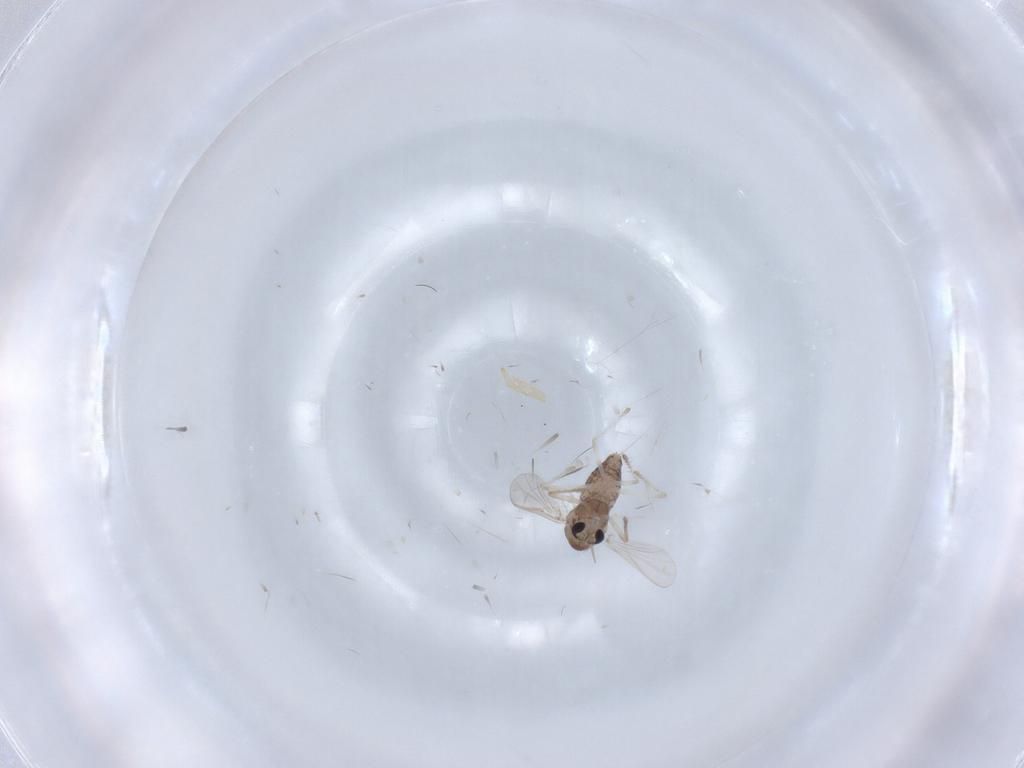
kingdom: Animalia
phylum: Arthropoda
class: Insecta
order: Diptera
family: Chironomidae
